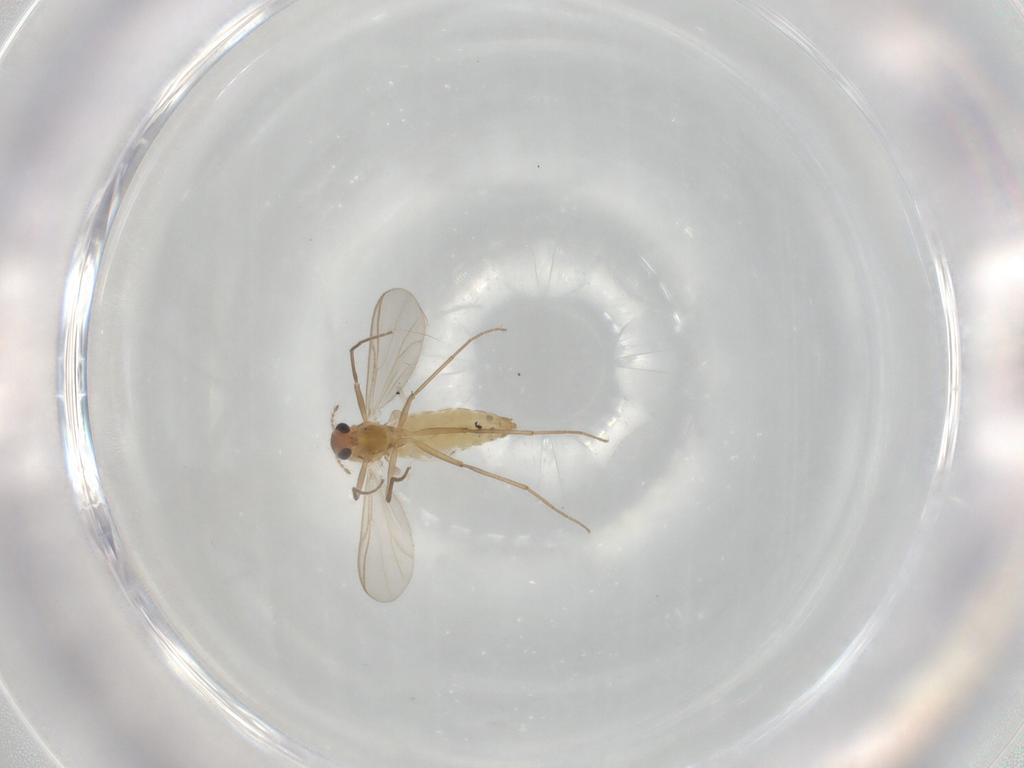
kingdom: Animalia
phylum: Arthropoda
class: Insecta
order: Diptera
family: Chironomidae
